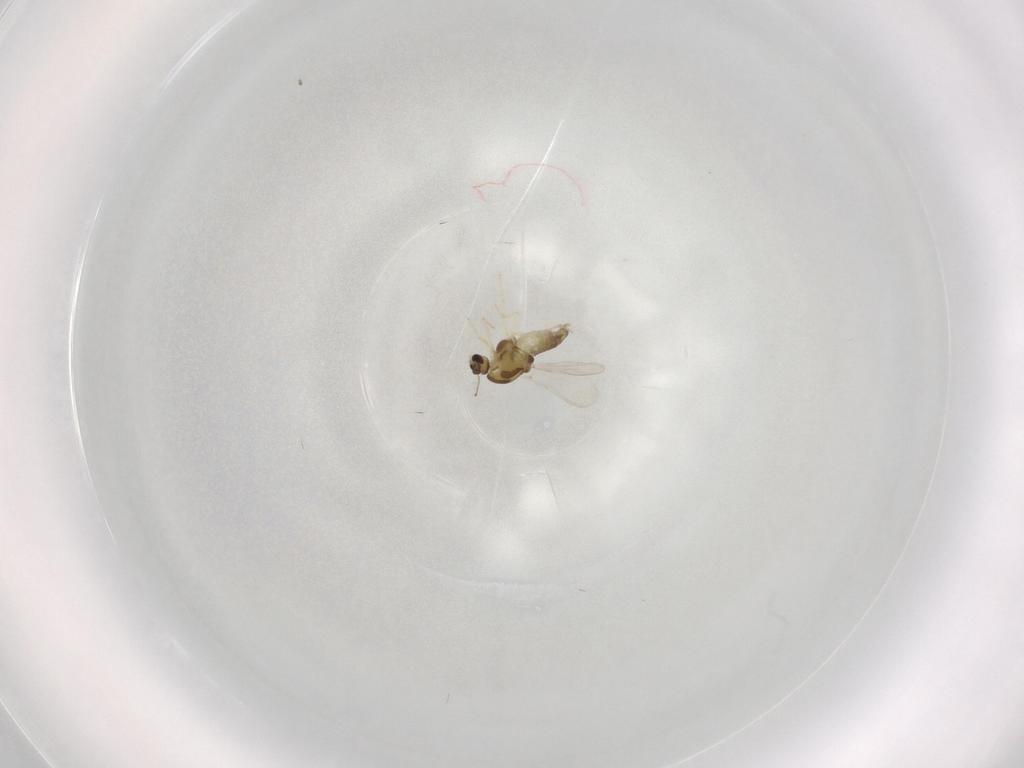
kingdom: Animalia
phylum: Arthropoda
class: Insecta
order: Diptera
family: Chironomidae
